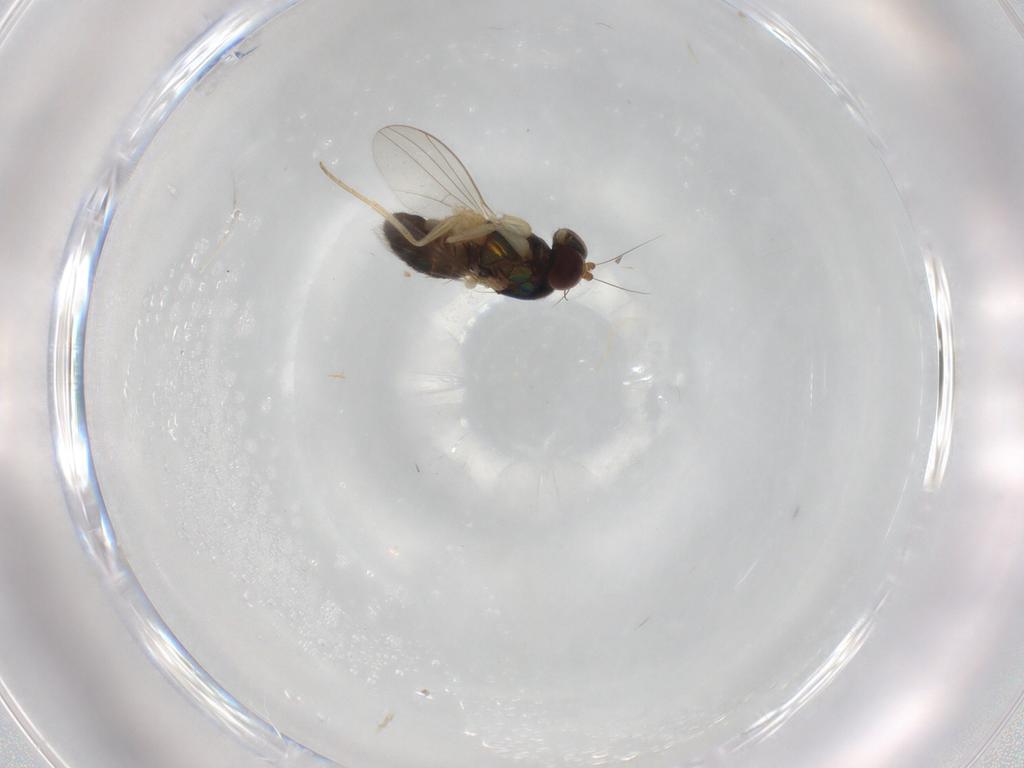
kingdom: Animalia
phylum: Arthropoda
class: Insecta
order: Diptera
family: Dolichopodidae
